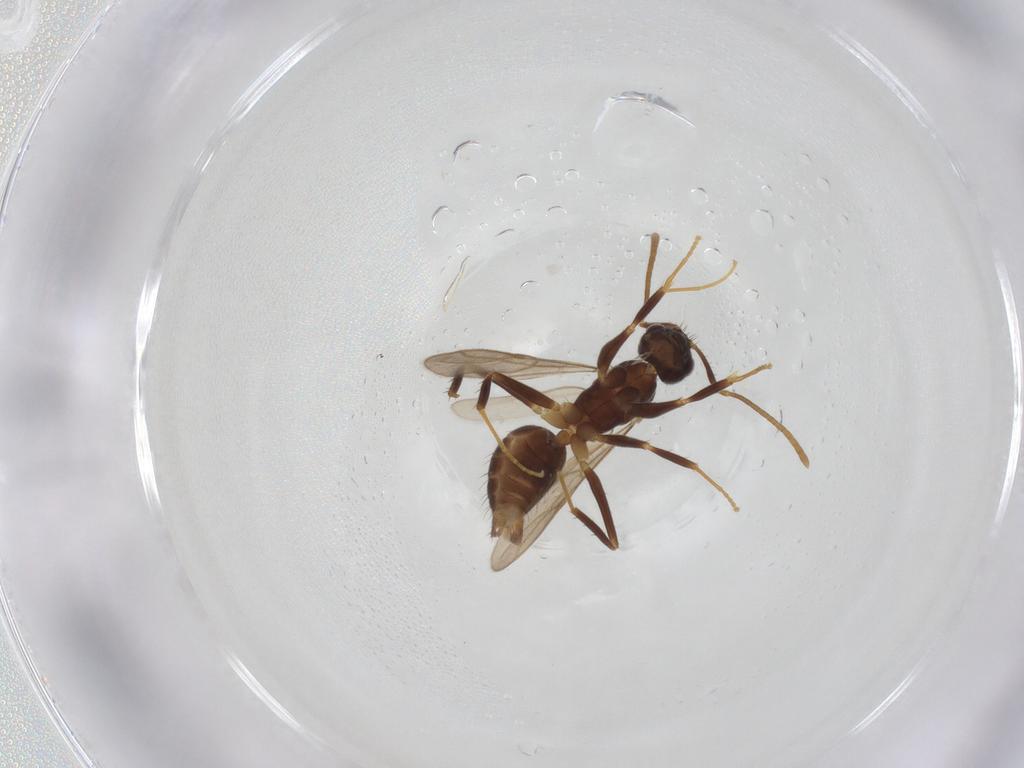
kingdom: Animalia
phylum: Arthropoda
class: Insecta
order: Hymenoptera
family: Formicidae
